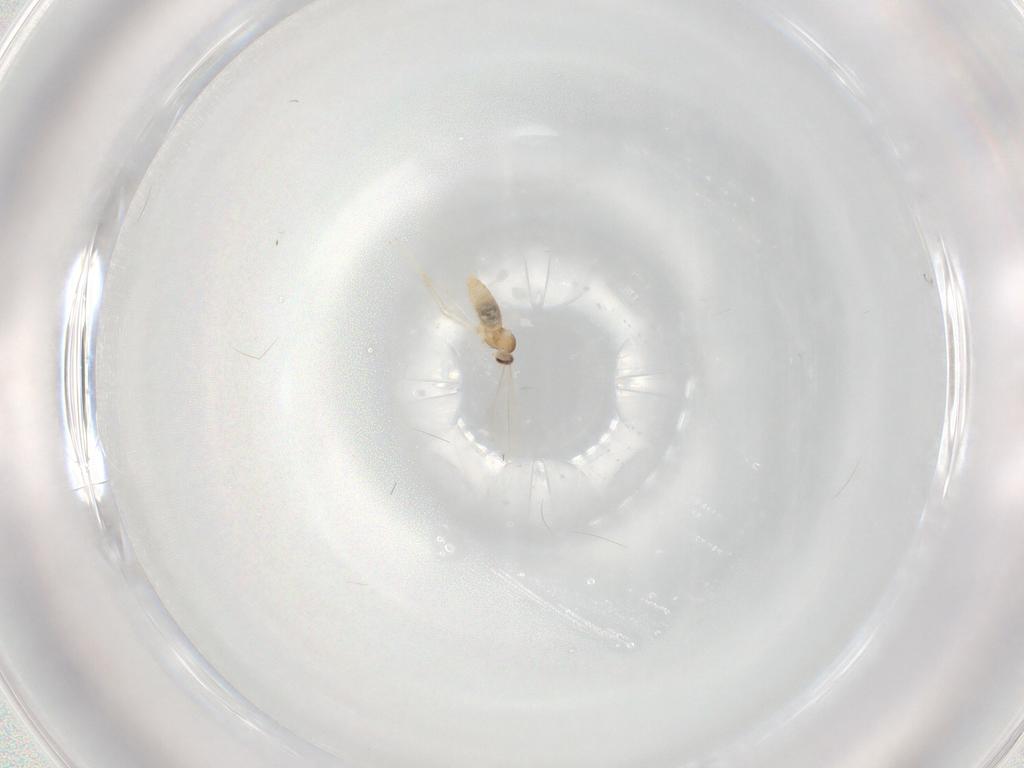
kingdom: Animalia
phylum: Arthropoda
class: Insecta
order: Diptera
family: Cecidomyiidae
